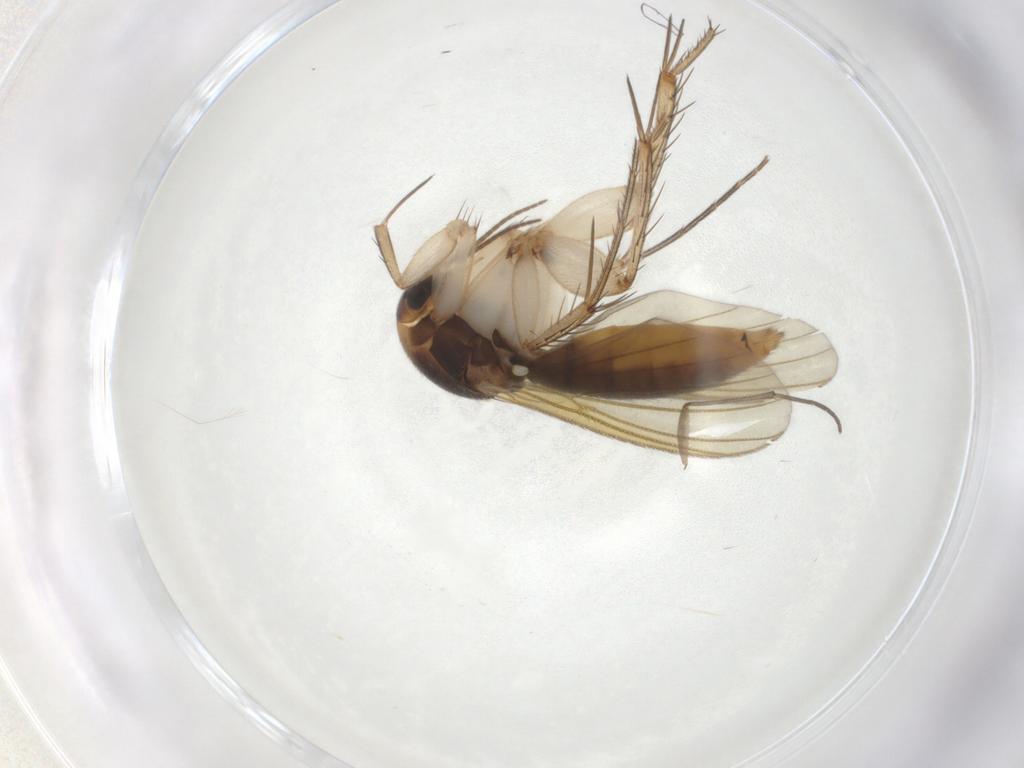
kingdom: Animalia
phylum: Arthropoda
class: Insecta
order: Diptera
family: Mycetophilidae
